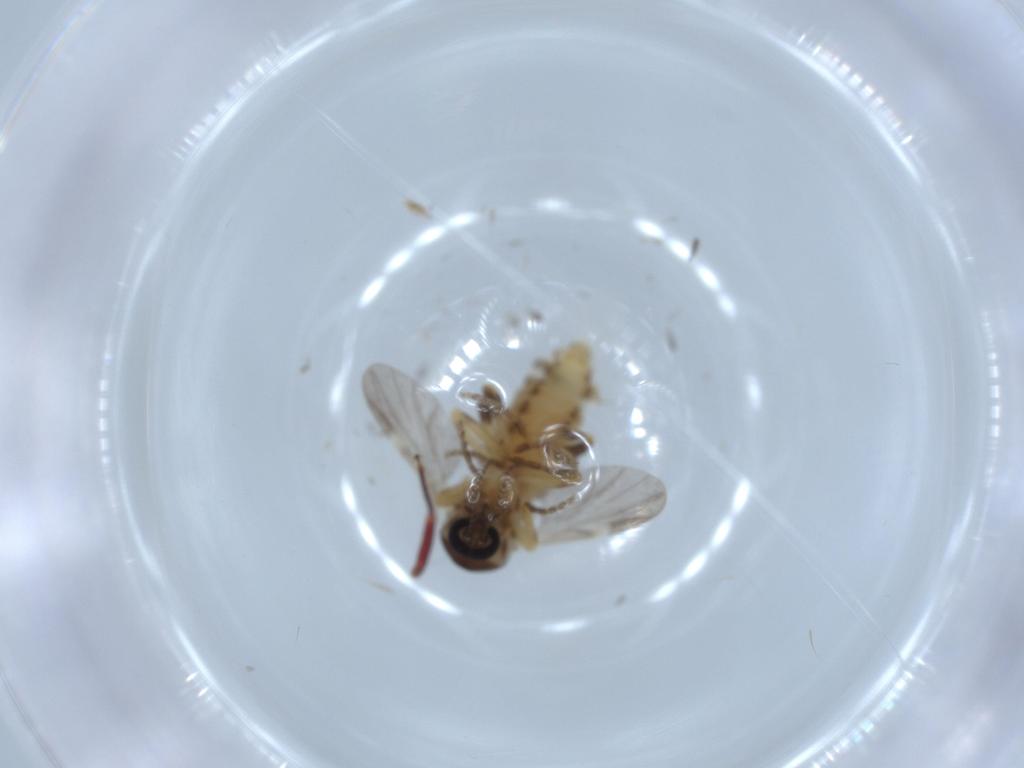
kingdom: Animalia
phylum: Arthropoda
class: Insecta
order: Diptera
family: Ceratopogonidae
